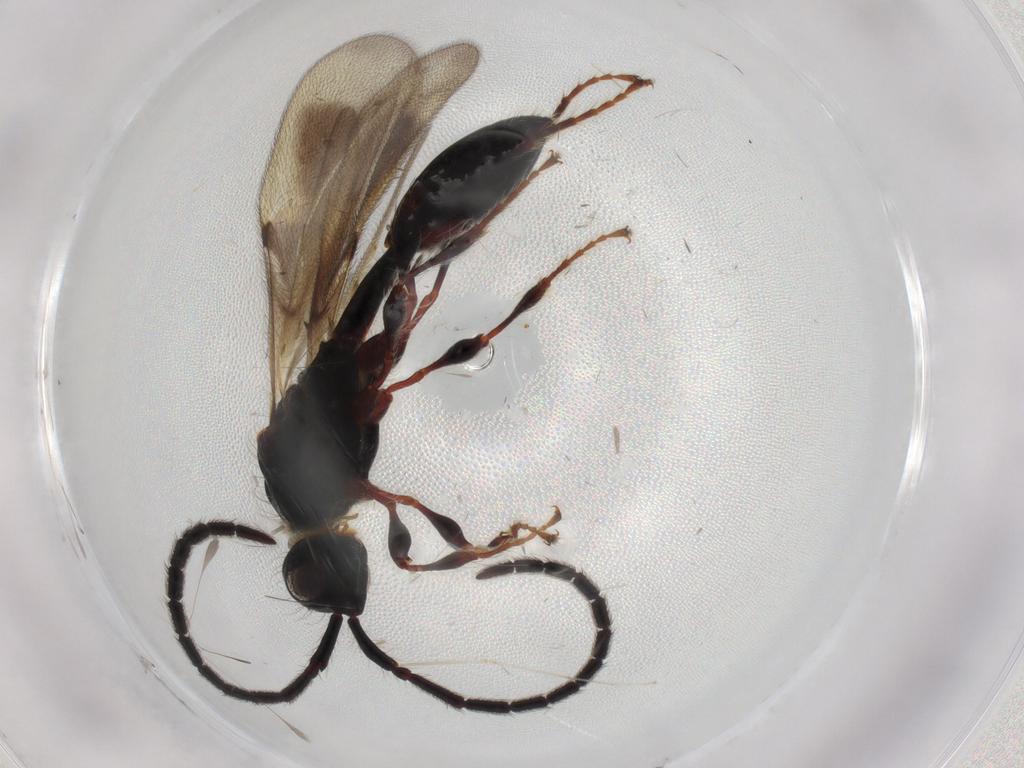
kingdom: Animalia
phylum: Arthropoda
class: Insecta
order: Hymenoptera
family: Diapriidae
